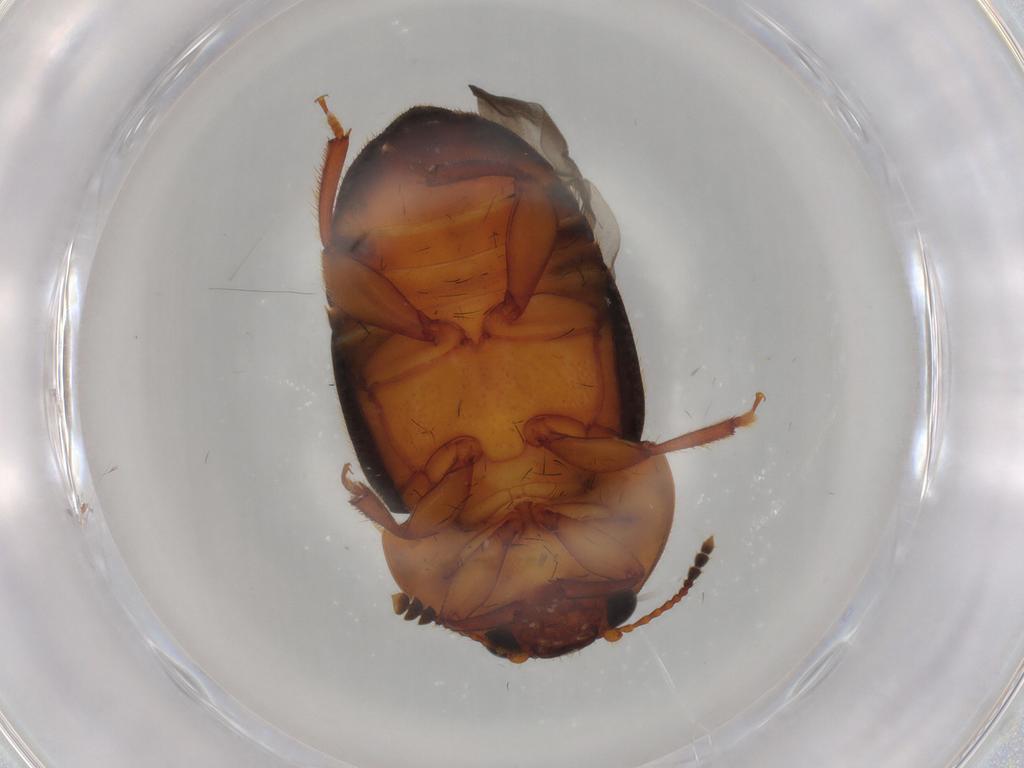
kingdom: Animalia
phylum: Arthropoda
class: Insecta
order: Coleoptera
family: Nitidulidae
